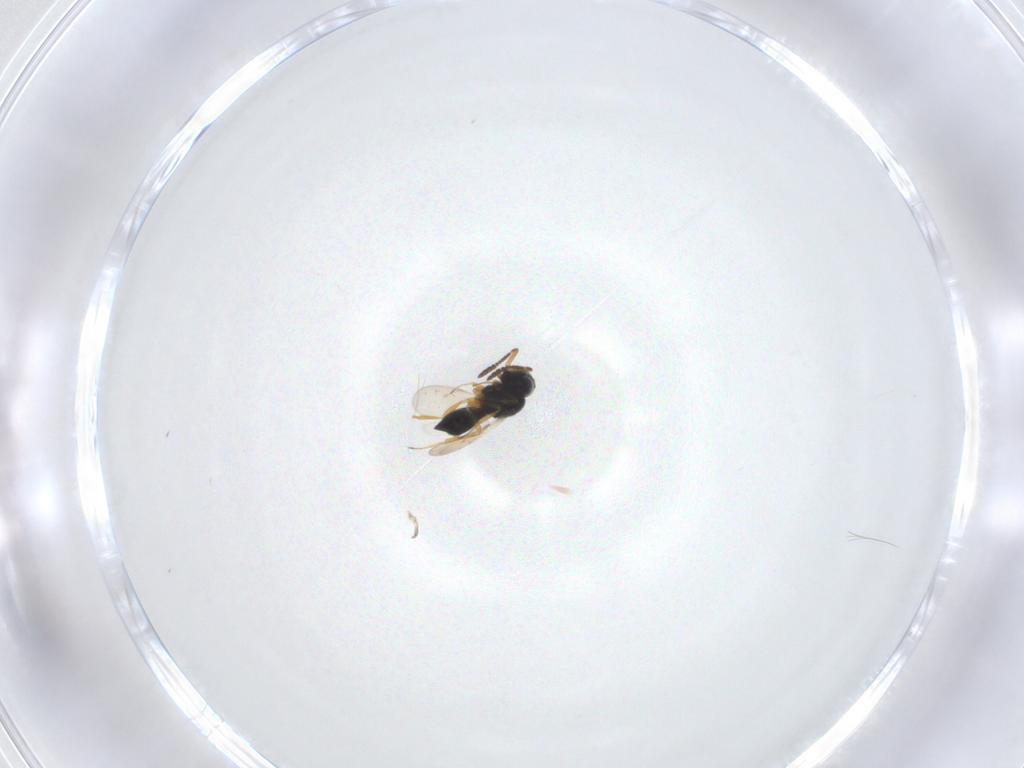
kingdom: Animalia
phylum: Arthropoda
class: Insecta
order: Hymenoptera
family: Scelionidae
